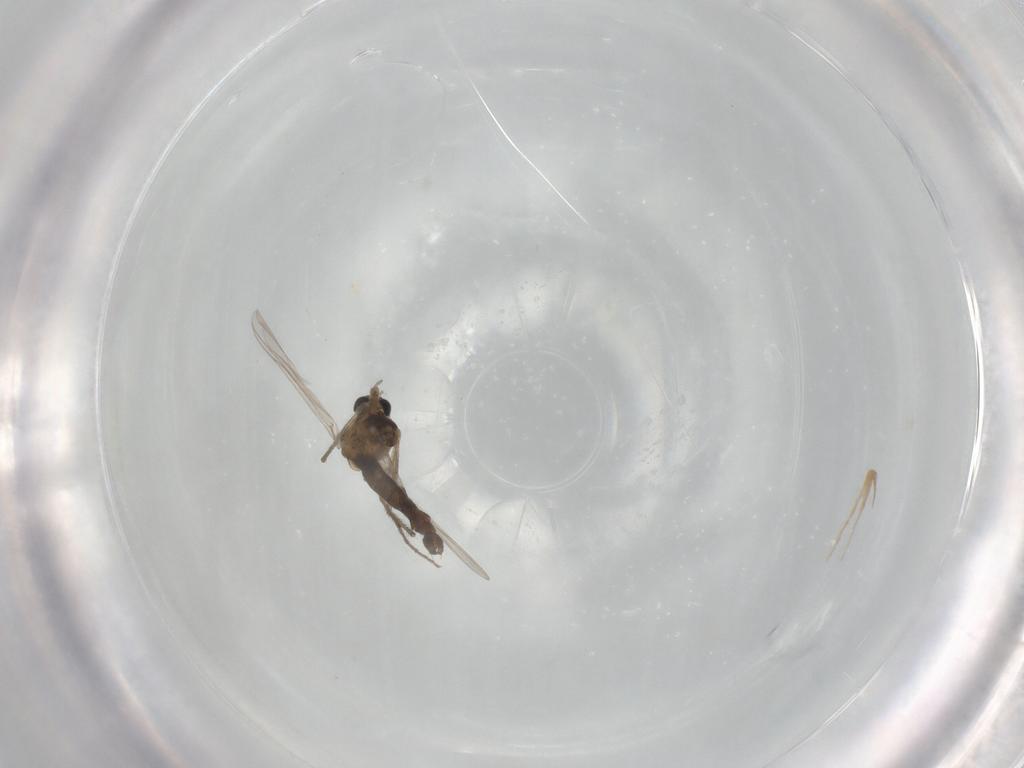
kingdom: Animalia
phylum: Arthropoda
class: Insecta
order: Diptera
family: Chironomidae
